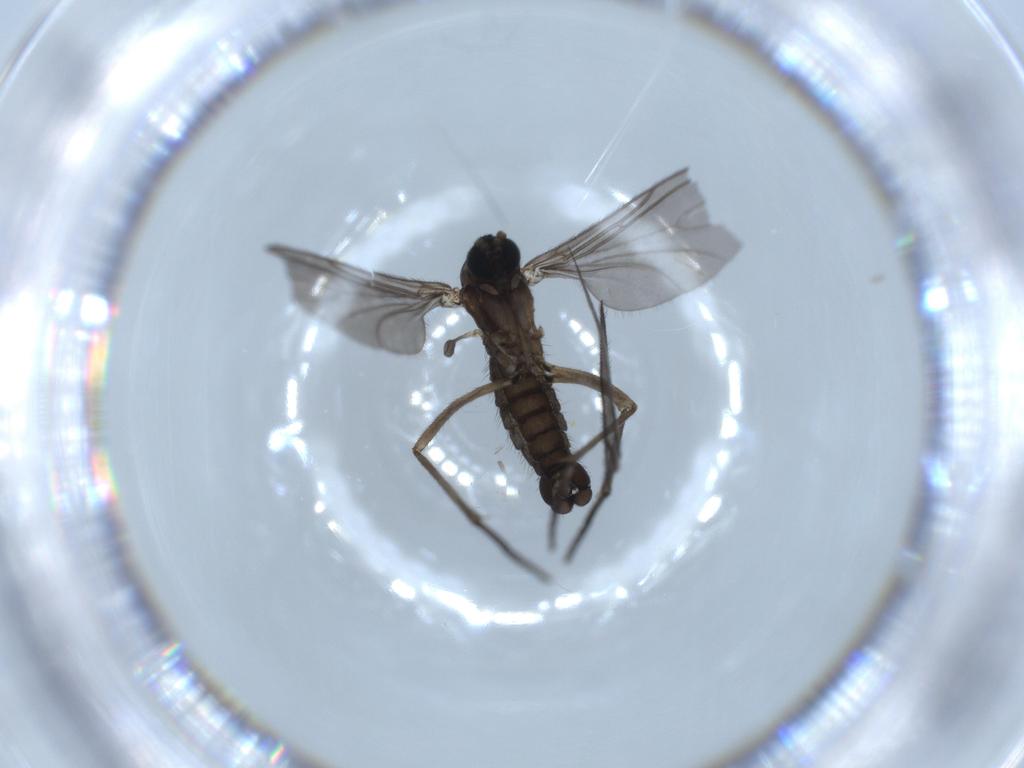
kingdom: Animalia
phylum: Arthropoda
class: Insecta
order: Diptera
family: Sciaridae
